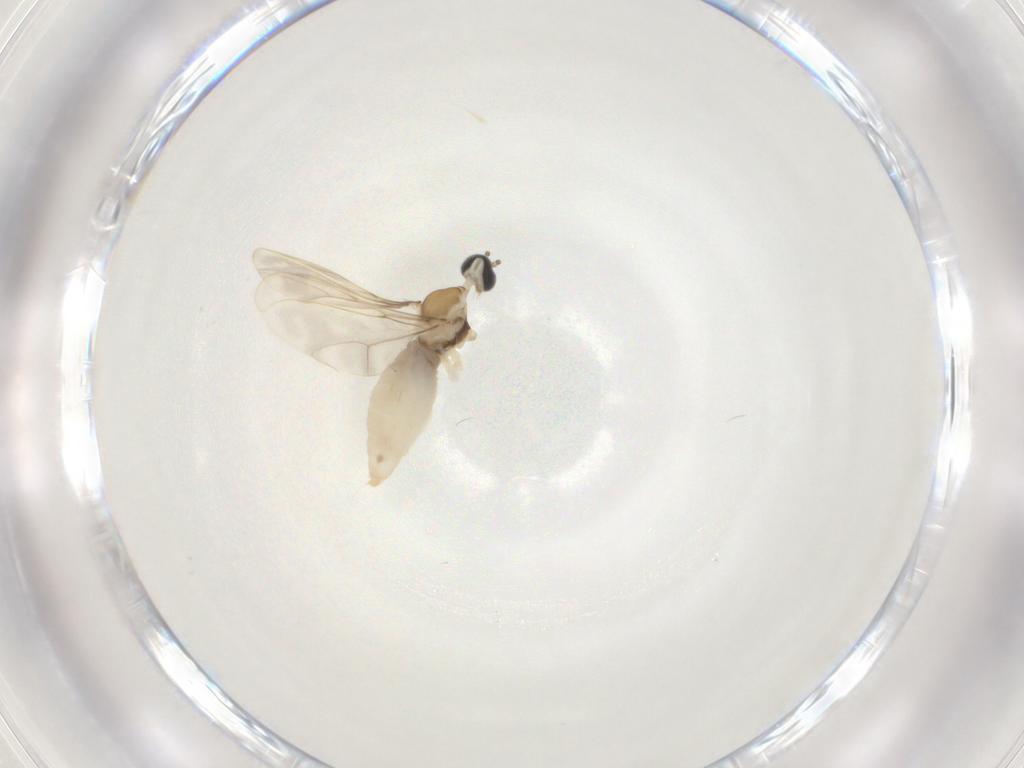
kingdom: Animalia
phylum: Arthropoda
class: Insecta
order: Diptera
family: Cecidomyiidae
